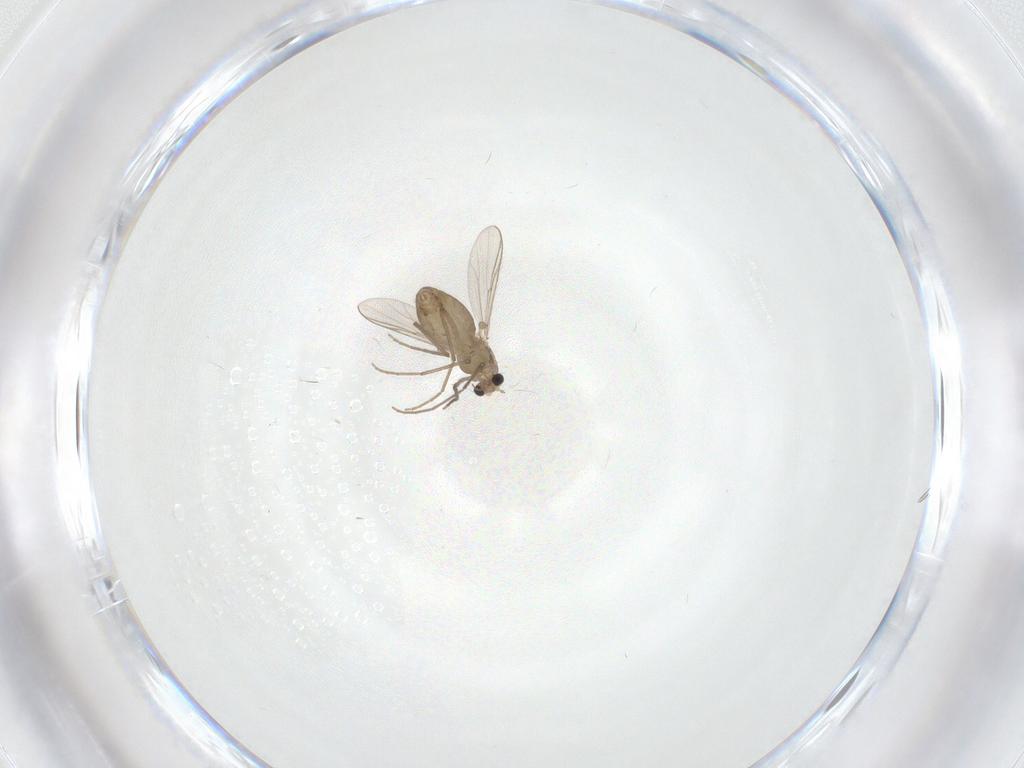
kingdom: Animalia
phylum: Arthropoda
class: Insecta
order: Diptera
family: Chironomidae
